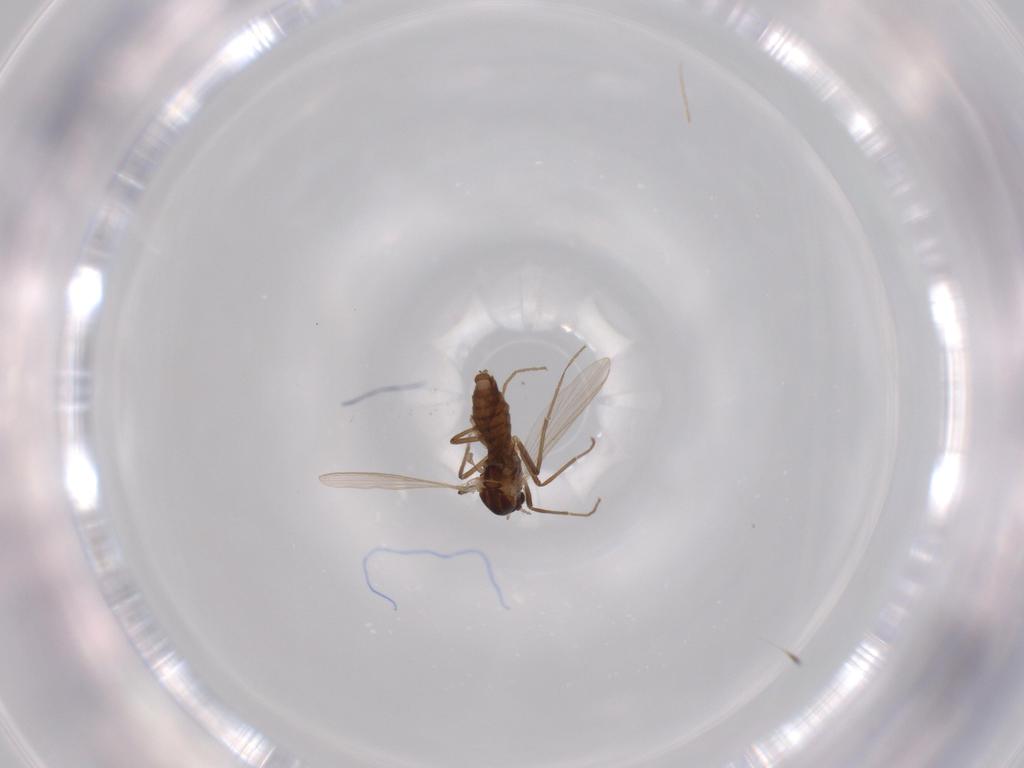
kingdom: Animalia
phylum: Arthropoda
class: Insecta
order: Diptera
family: Chironomidae
